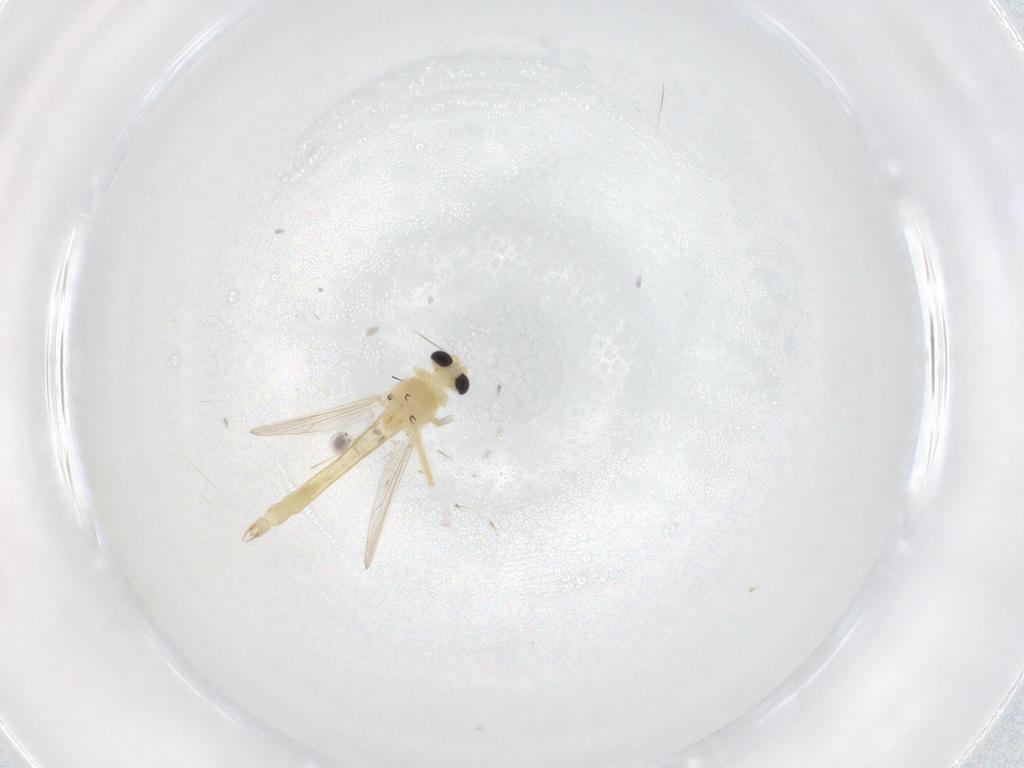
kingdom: Animalia
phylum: Arthropoda
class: Insecta
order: Diptera
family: Chironomidae
